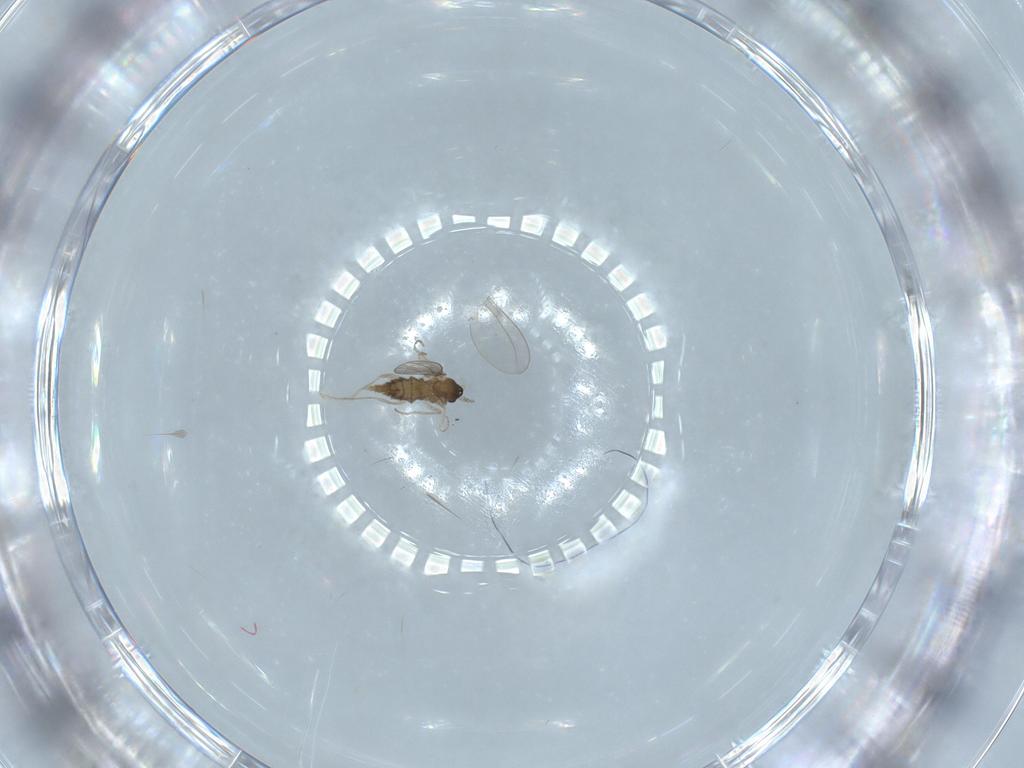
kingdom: Animalia
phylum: Arthropoda
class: Insecta
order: Diptera
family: Cecidomyiidae
